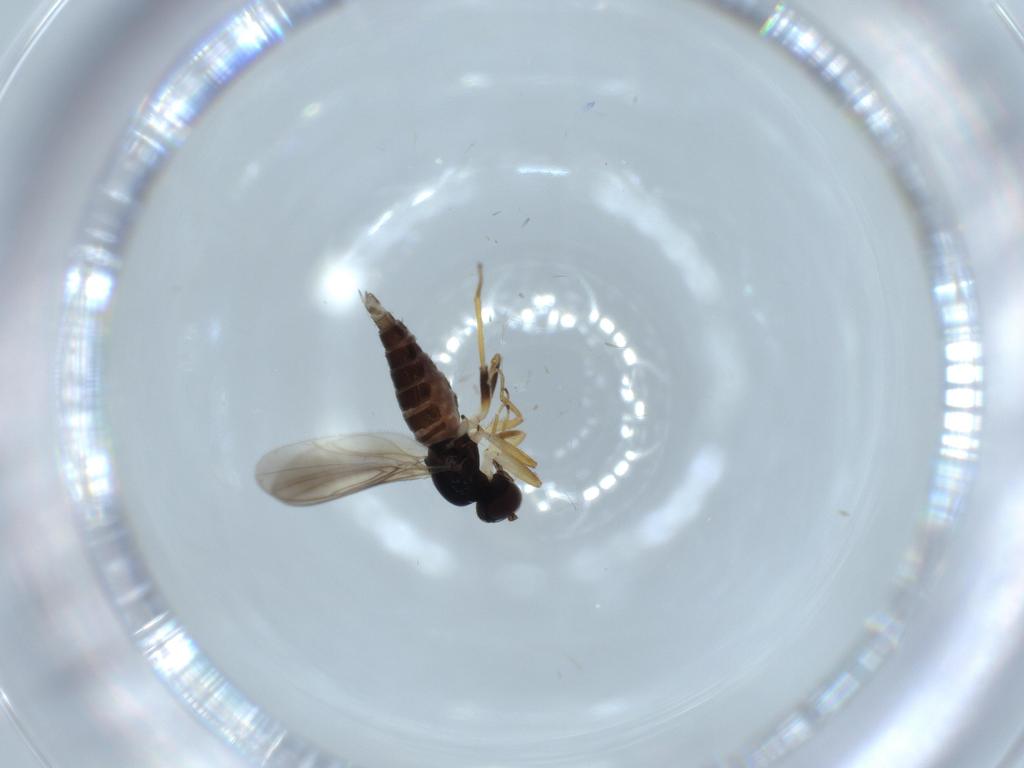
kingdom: Animalia
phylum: Arthropoda
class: Insecta
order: Diptera
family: Hybotidae
